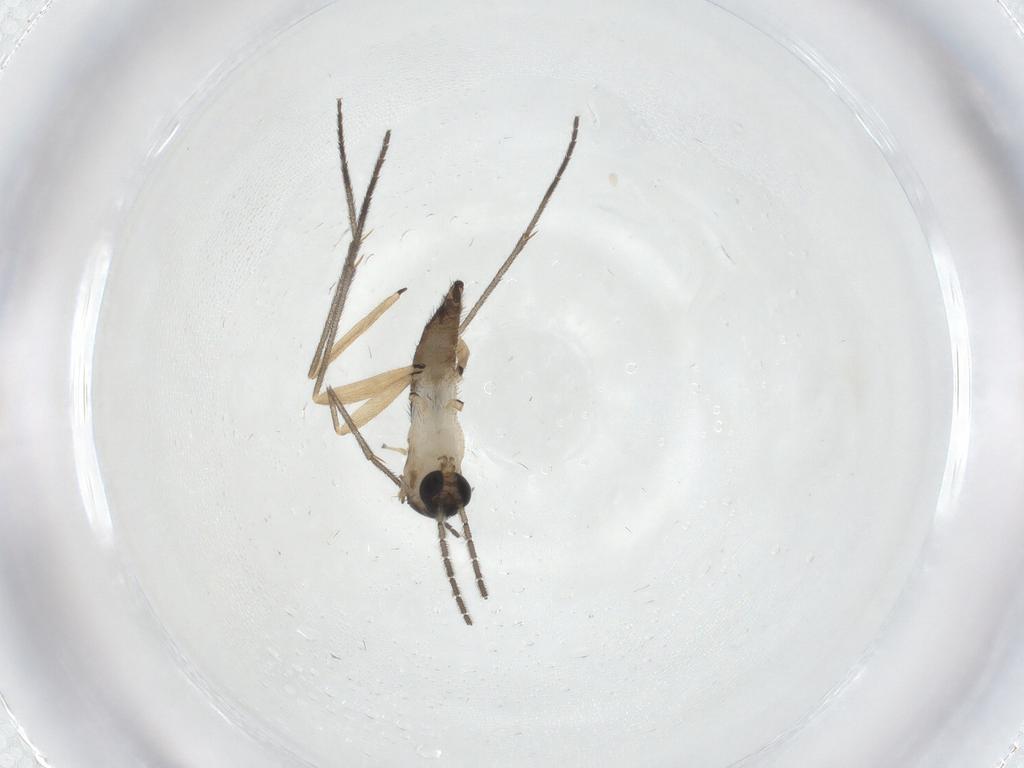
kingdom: Animalia
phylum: Arthropoda
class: Insecta
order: Diptera
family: Sciaridae
